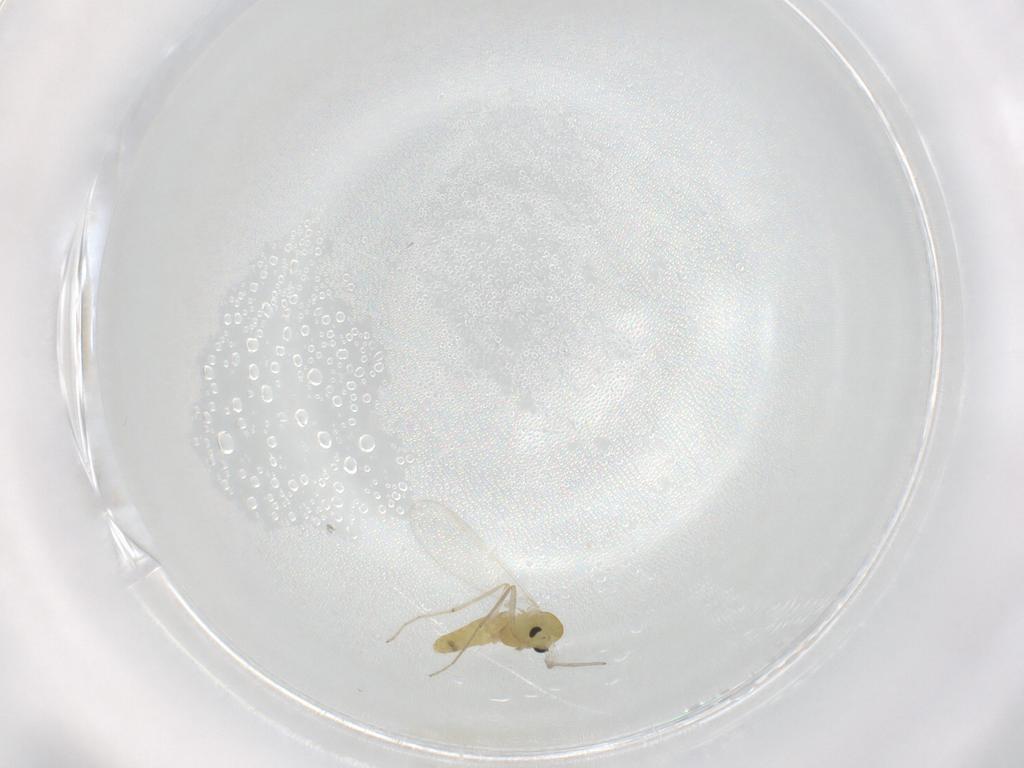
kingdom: Animalia
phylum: Arthropoda
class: Insecta
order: Diptera
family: Chironomidae
